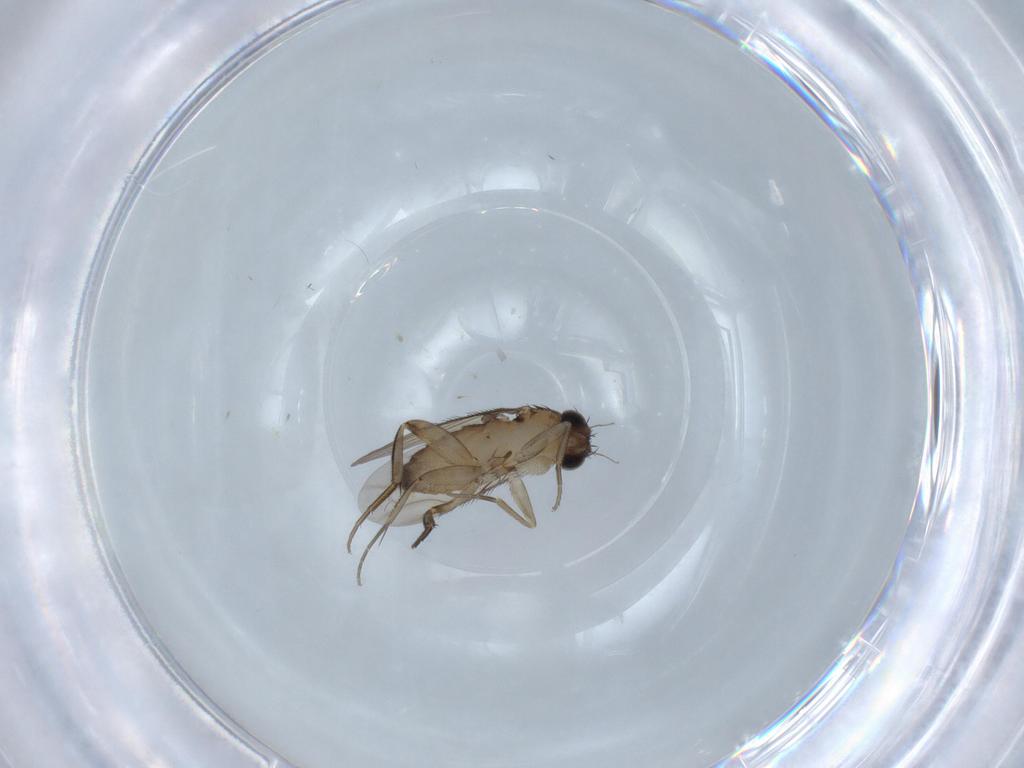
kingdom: Animalia
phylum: Arthropoda
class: Insecta
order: Diptera
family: Phoridae
